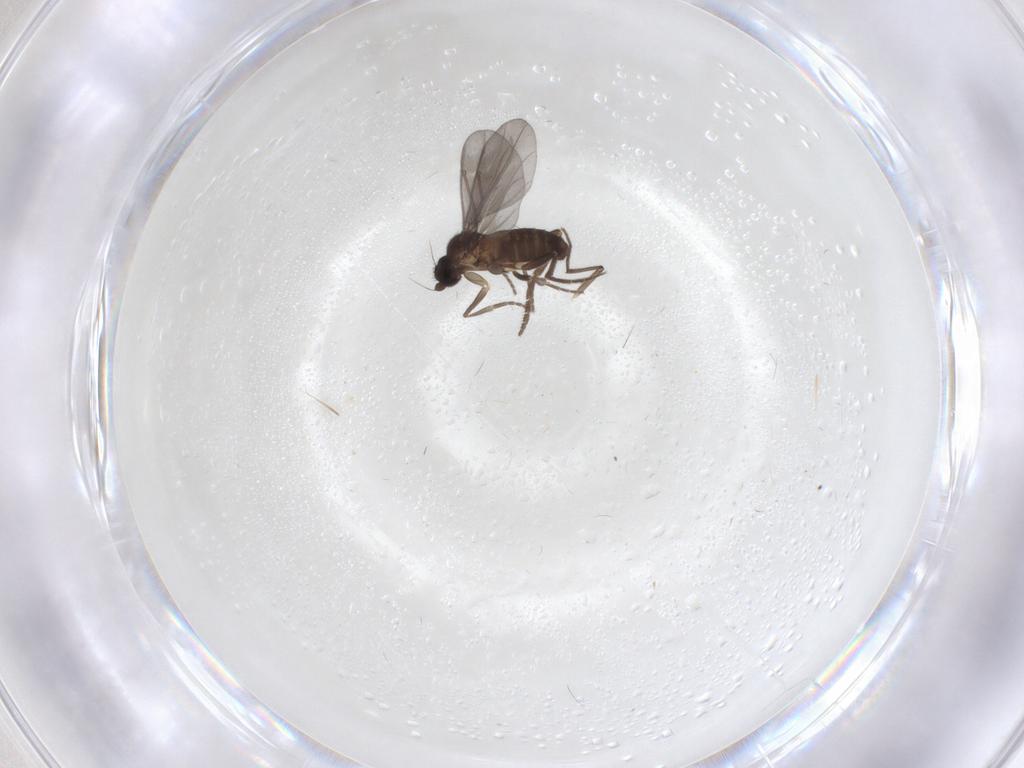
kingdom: Animalia
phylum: Arthropoda
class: Insecta
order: Diptera
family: Phoridae
